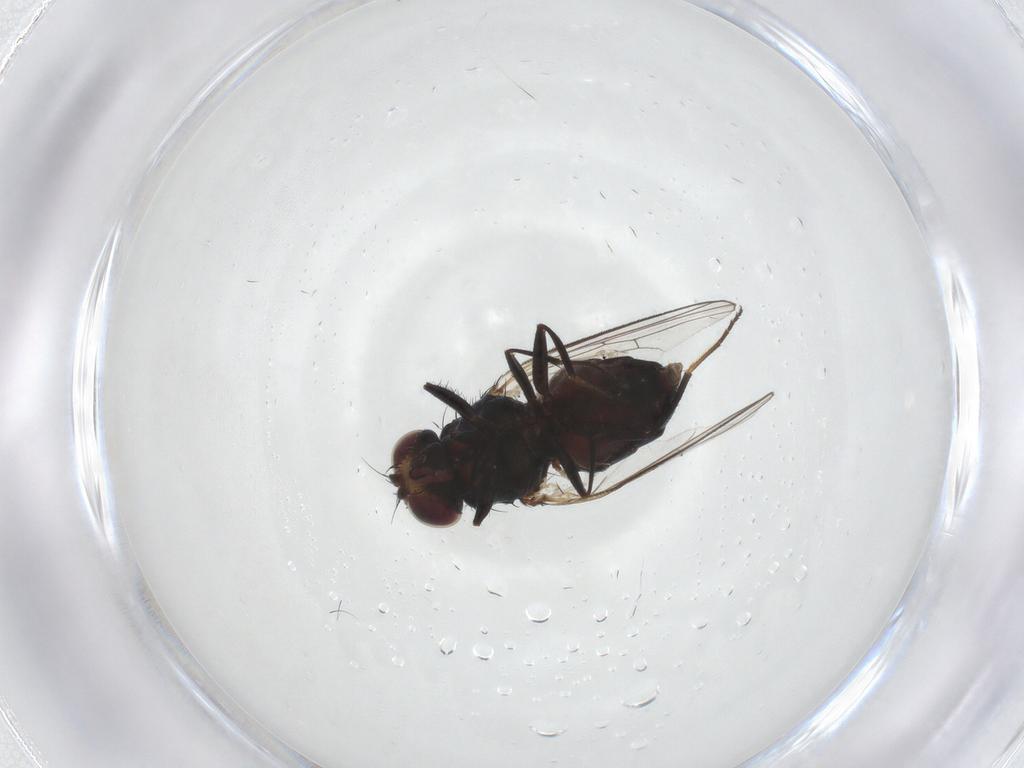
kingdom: Animalia
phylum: Arthropoda
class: Insecta
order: Diptera
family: Carnidae
